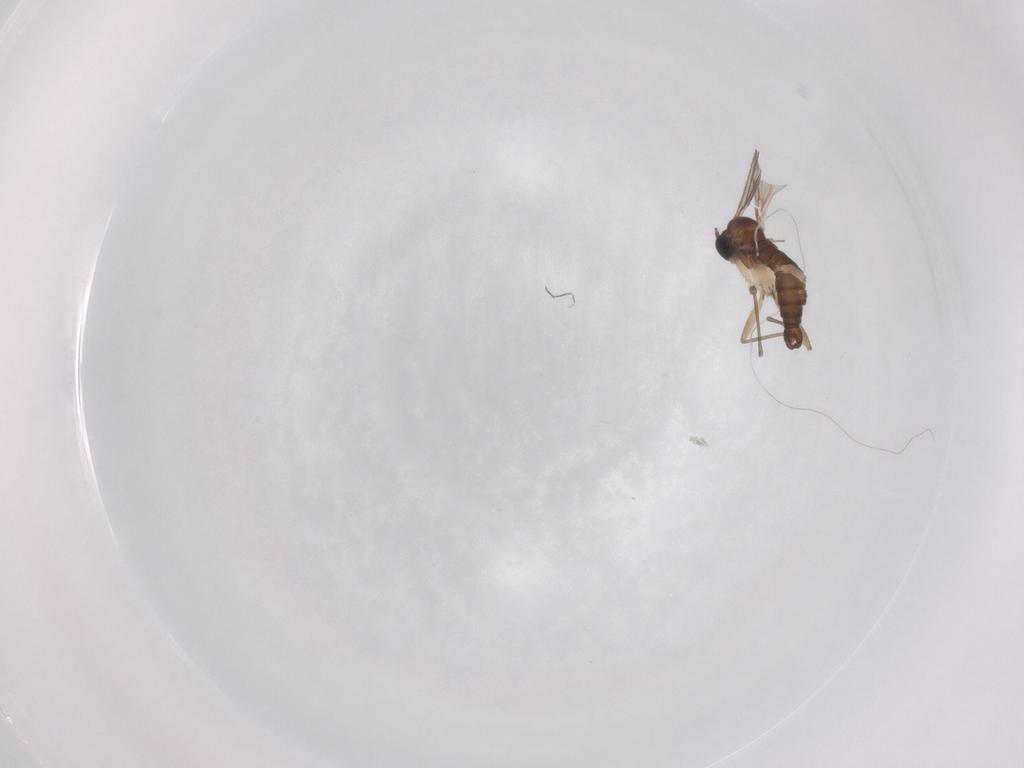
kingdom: Animalia
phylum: Arthropoda
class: Insecta
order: Diptera
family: Sciaridae
